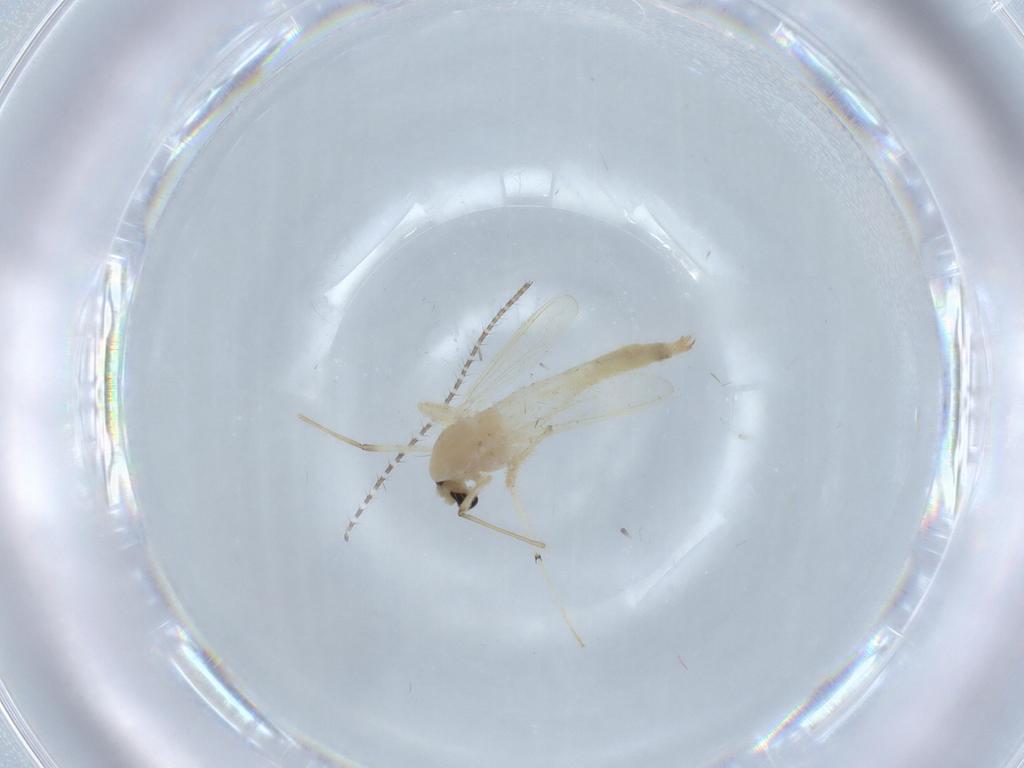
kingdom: Animalia
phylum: Arthropoda
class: Insecta
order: Diptera
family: Chironomidae
